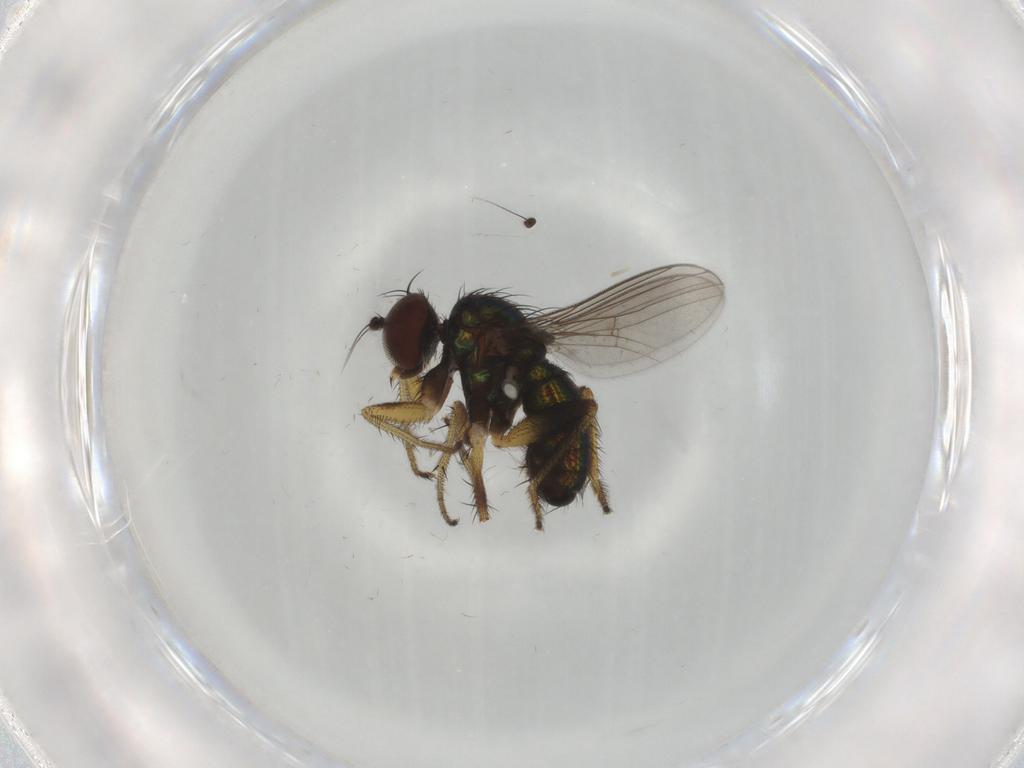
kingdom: Animalia
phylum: Arthropoda
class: Insecta
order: Diptera
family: Dolichopodidae
